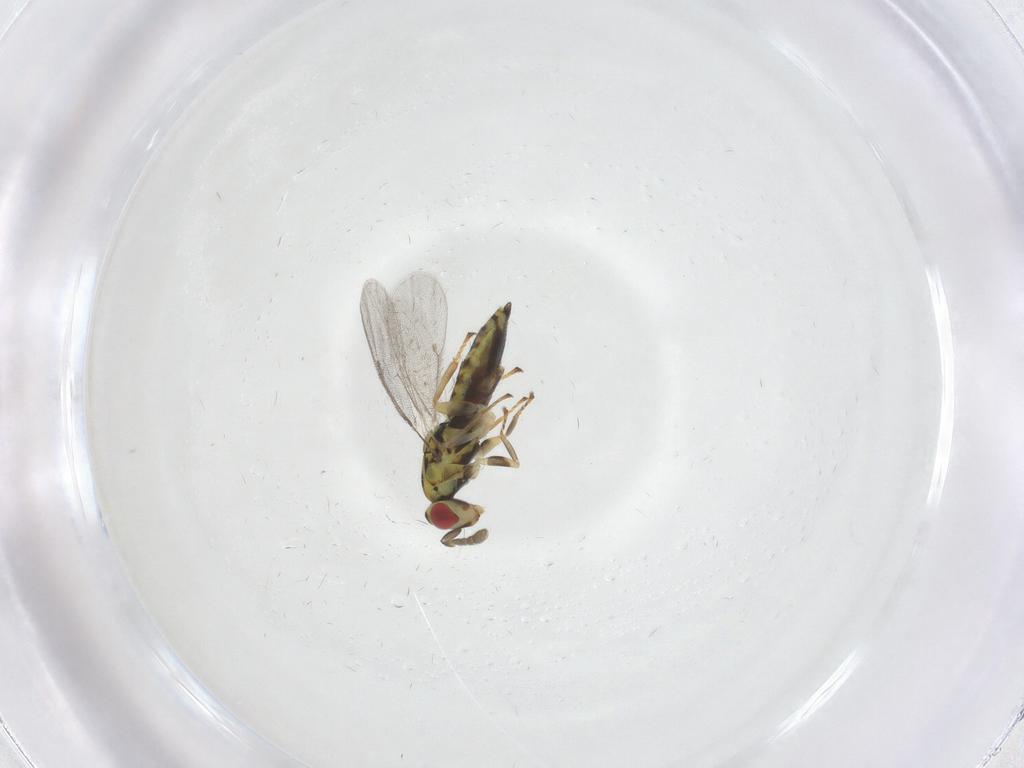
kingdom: Animalia
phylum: Arthropoda
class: Insecta
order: Hymenoptera
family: Eulophidae
